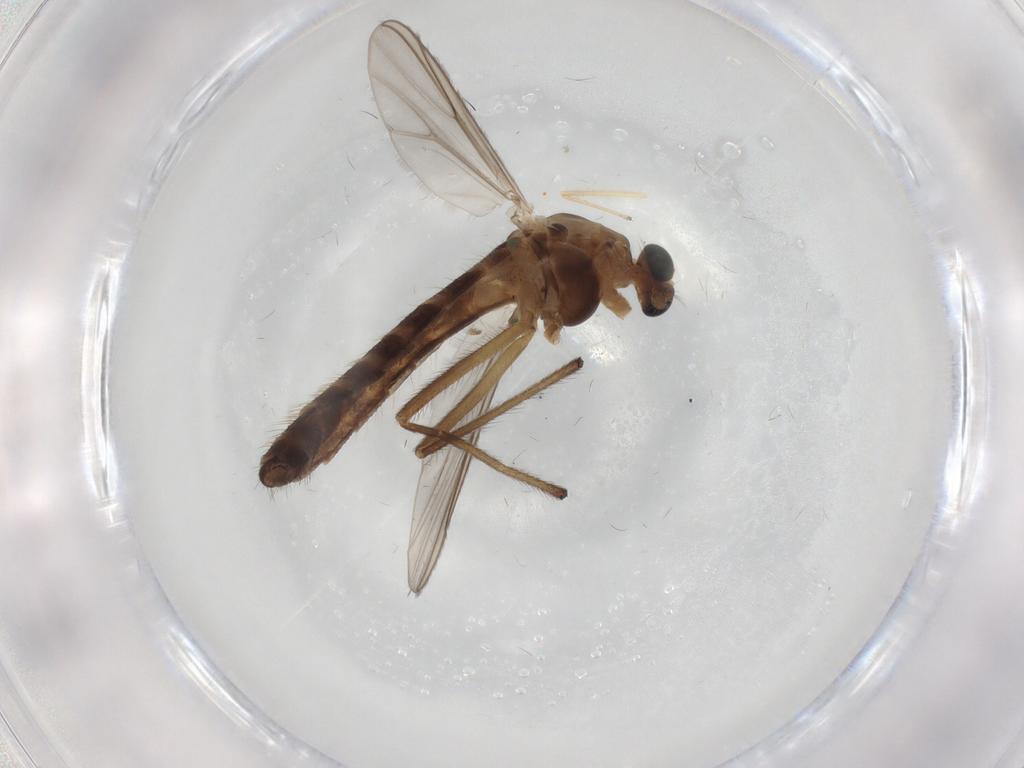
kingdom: Animalia
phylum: Arthropoda
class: Insecta
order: Diptera
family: Chironomidae
